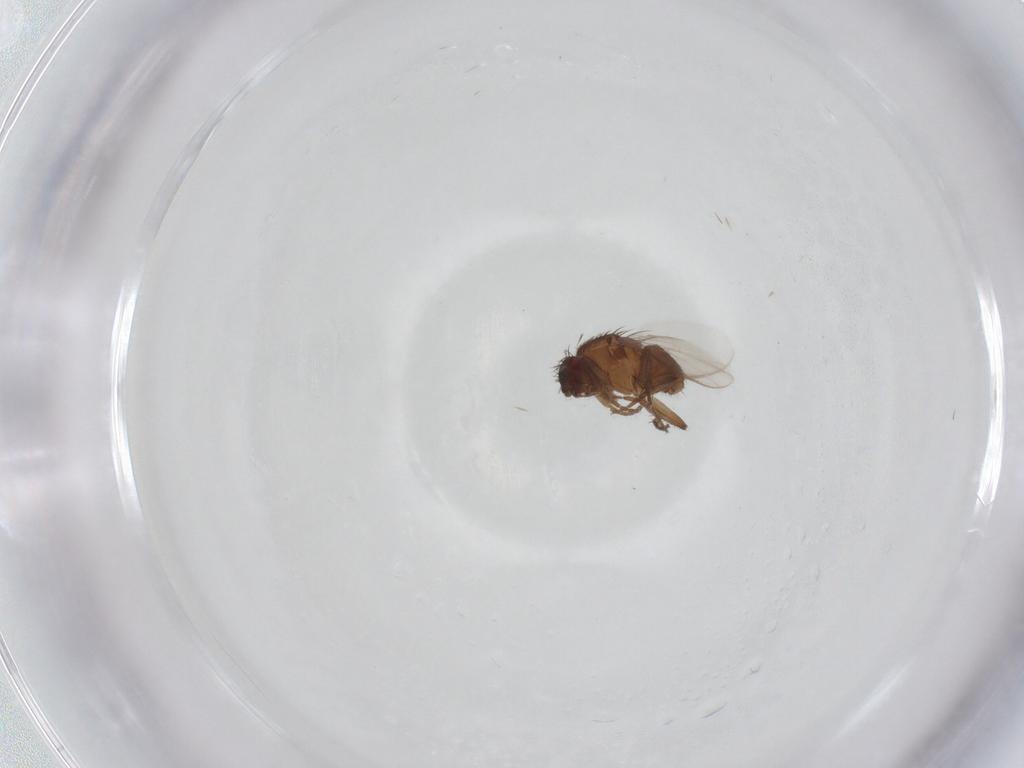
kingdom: Animalia
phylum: Arthropoda
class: Insecta
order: Diptera
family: Sphaeroceridae
